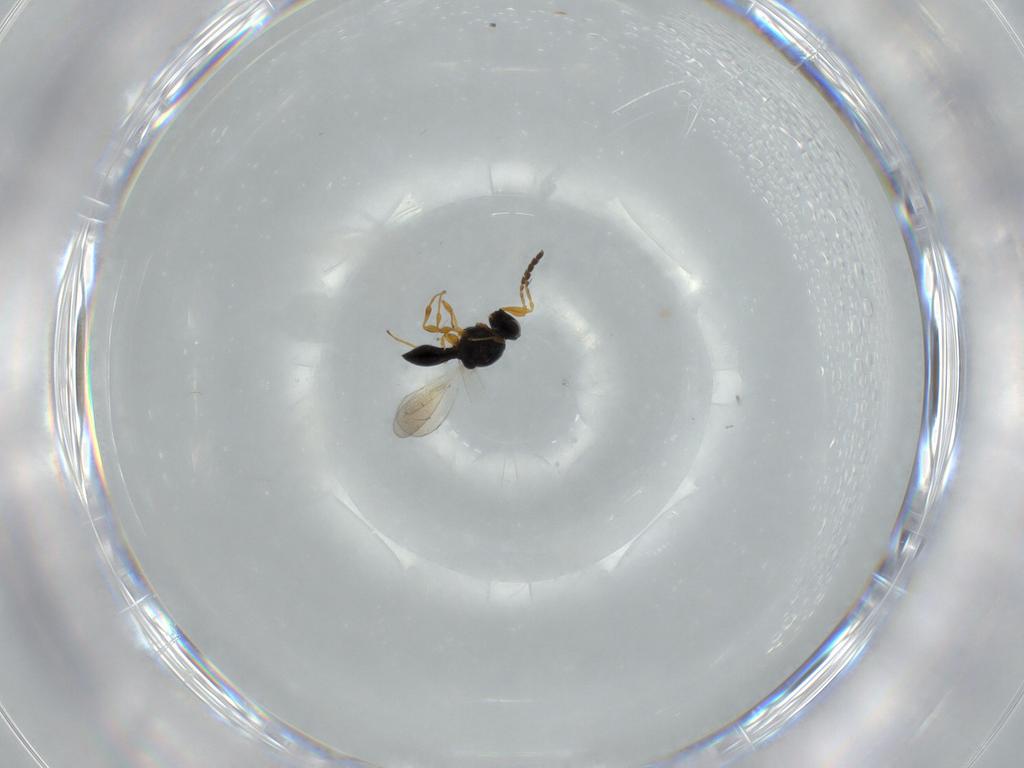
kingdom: Animalia
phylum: Arthropoda
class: Insecta
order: Hymenoptera
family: Platygastridae
